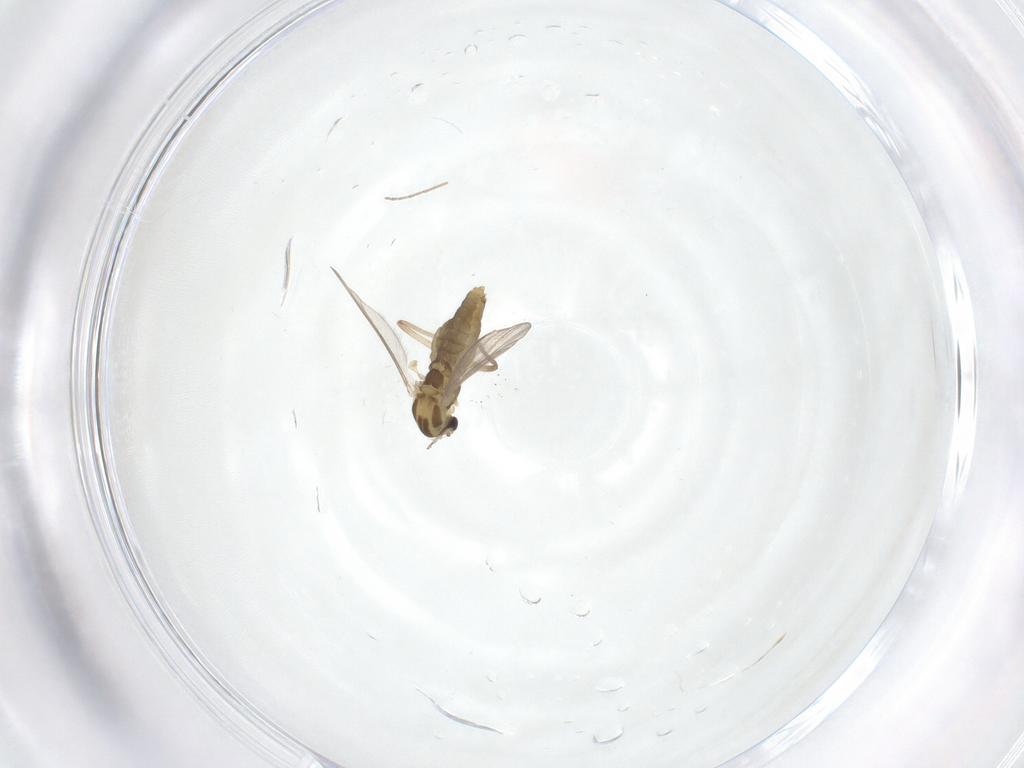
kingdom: Animalia
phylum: Arthropoda
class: Insecta
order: Diptera
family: Chironomidae
